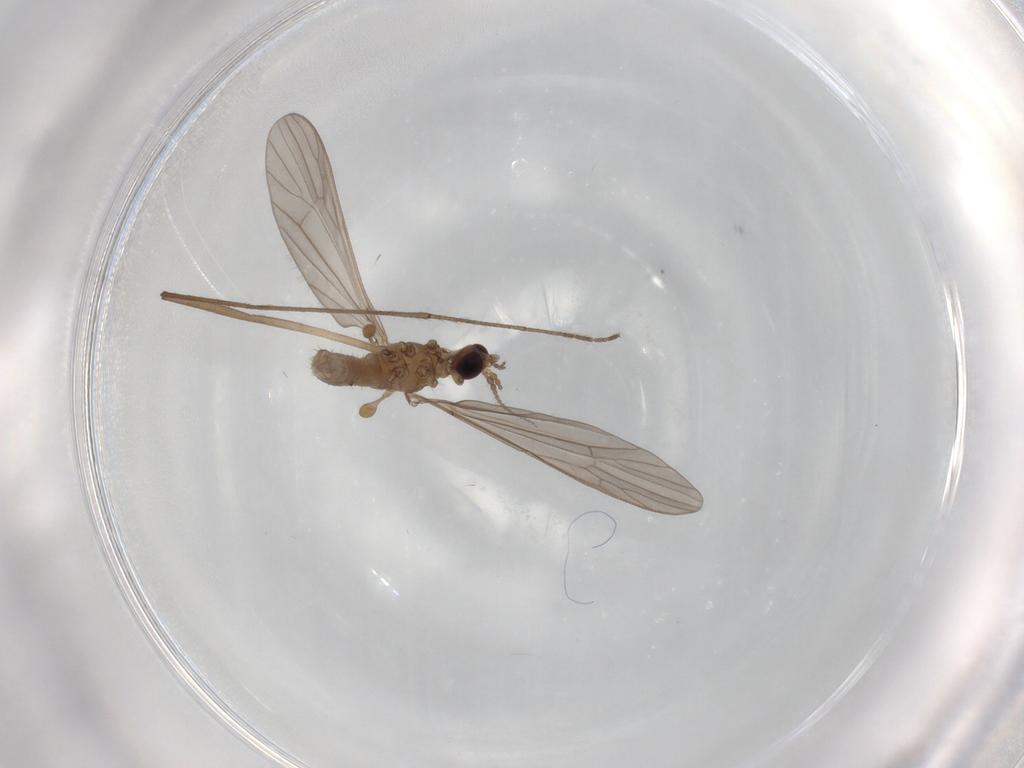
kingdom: Animalia
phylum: Arthropoda
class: Insecta
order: Diptera
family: Limoniidae
